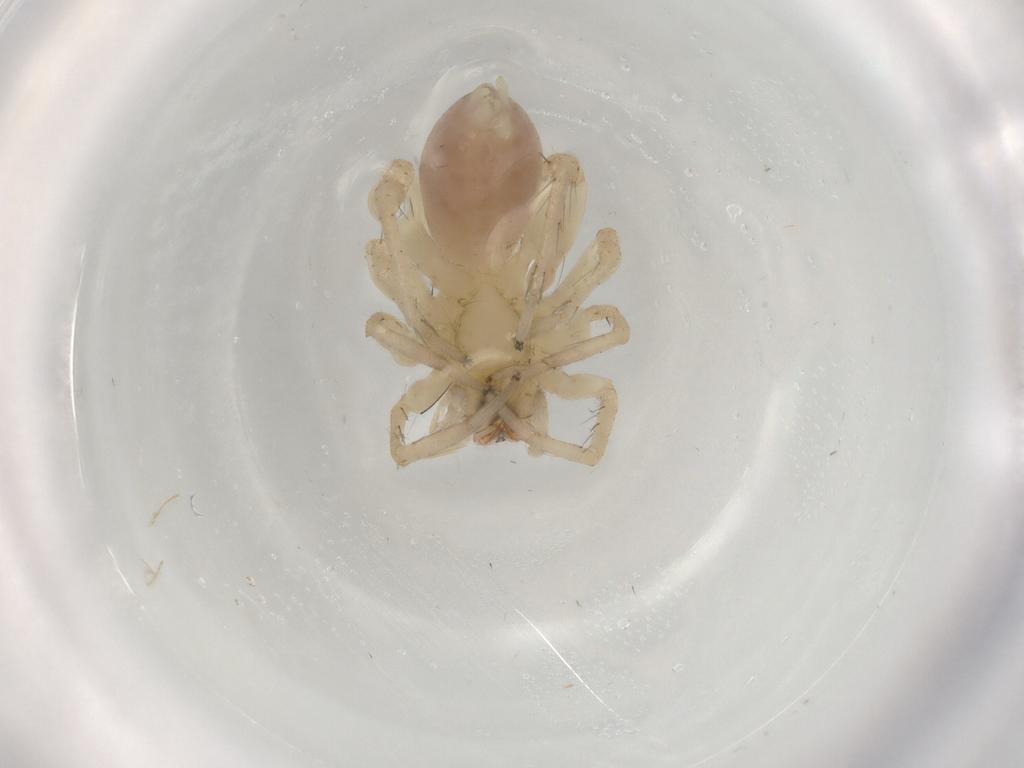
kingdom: Animalia
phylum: Arthropoda
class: Arachnida
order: Araneae
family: Anyphaenidae
